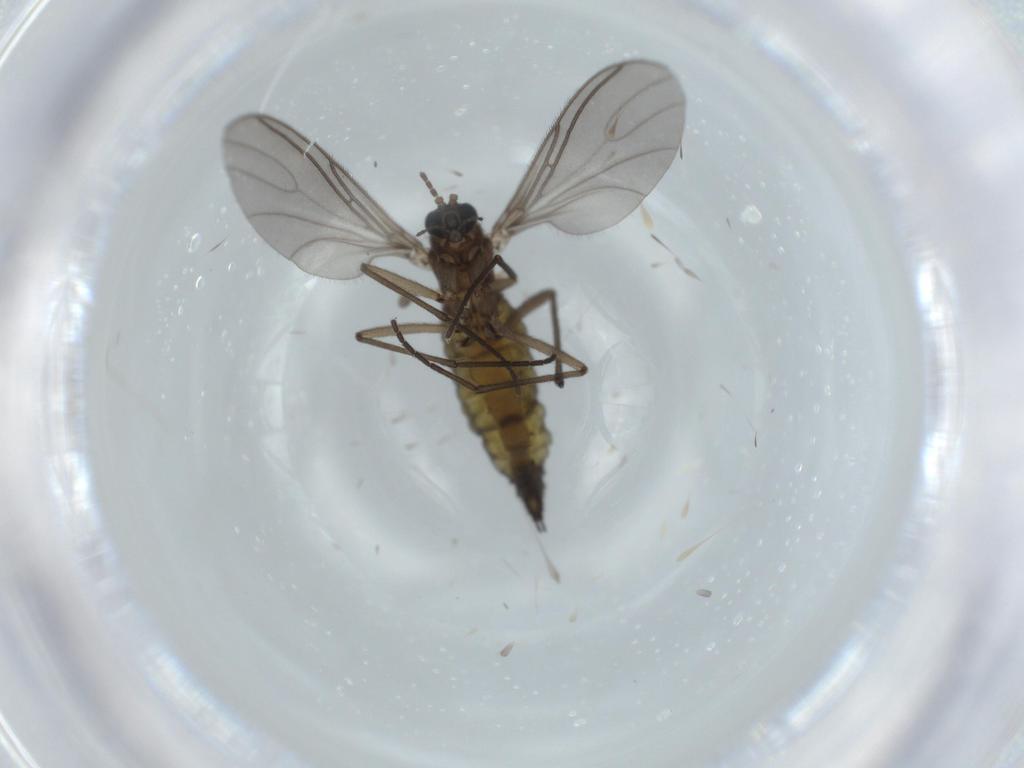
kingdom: Animalia
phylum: Arthropoda
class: Insecta
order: Diptera
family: Sciaridae
